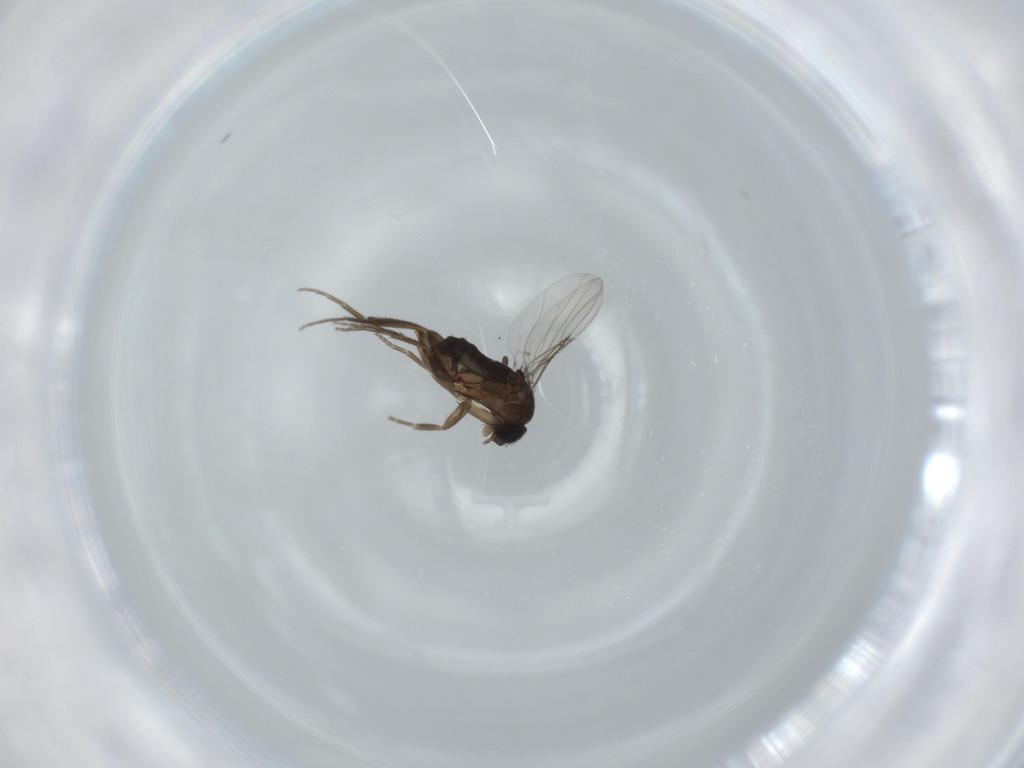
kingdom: Animalia
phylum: Arthropoda
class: Insecta
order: Diptera
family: Phoridae
